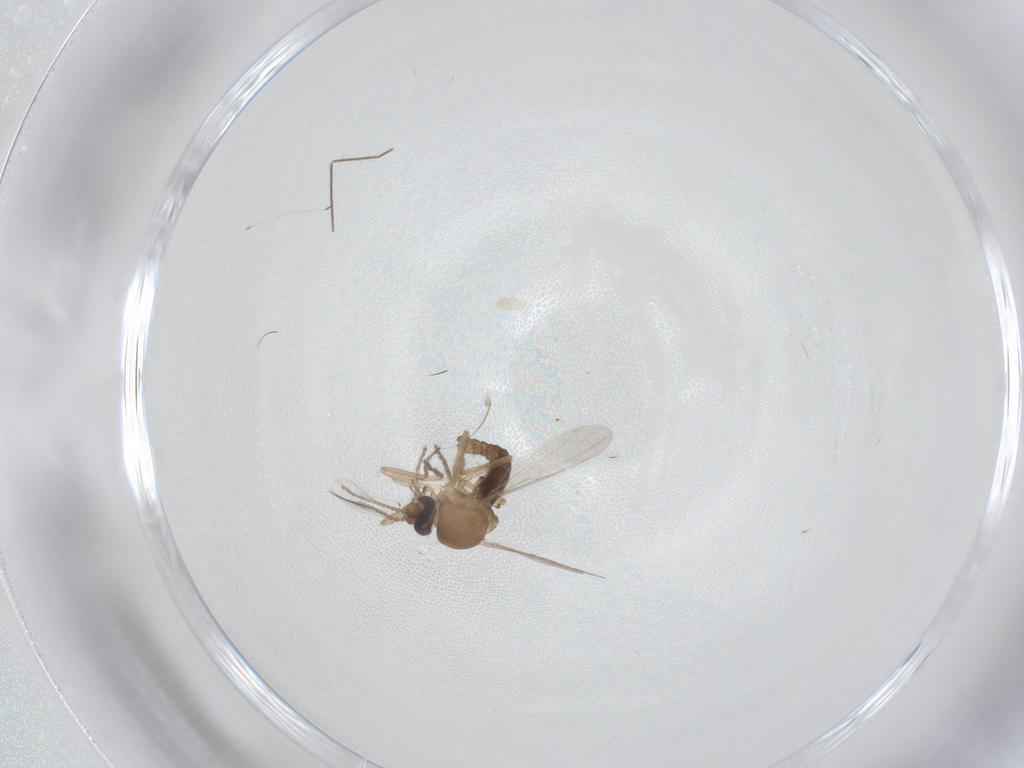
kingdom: Animalia
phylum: Arthropoda
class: Insecta
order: Diptera
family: Ceratopogonidae
